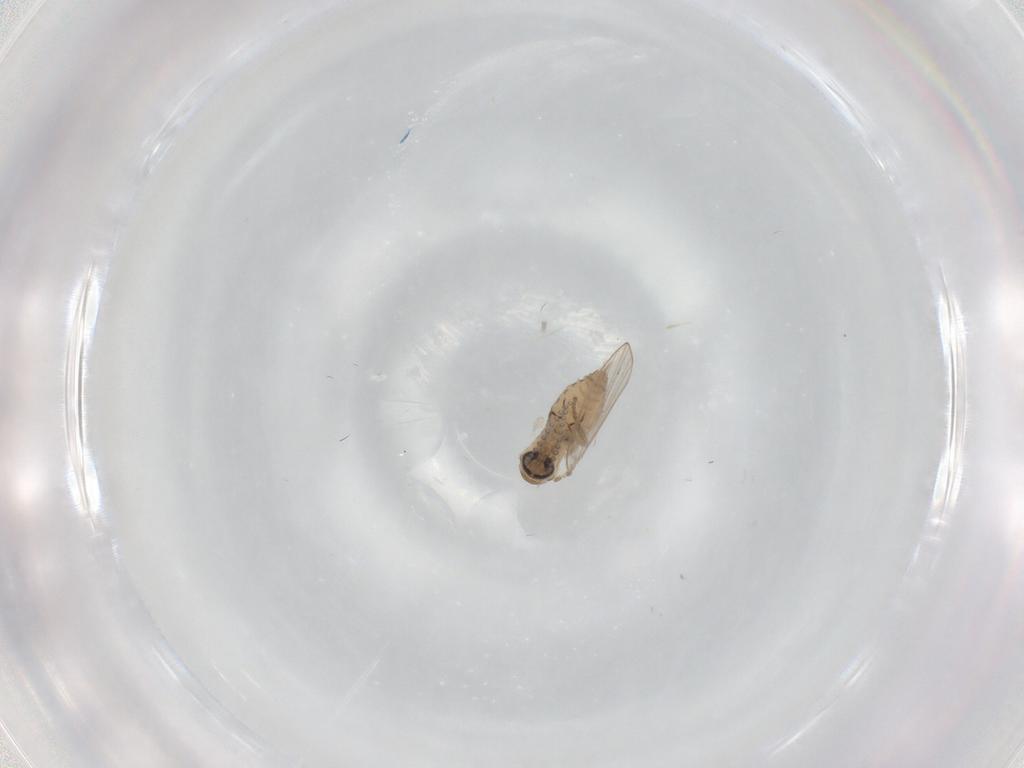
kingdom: Animalia
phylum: Arthropoda
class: Insecta
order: Diptera
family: Psychodidae
